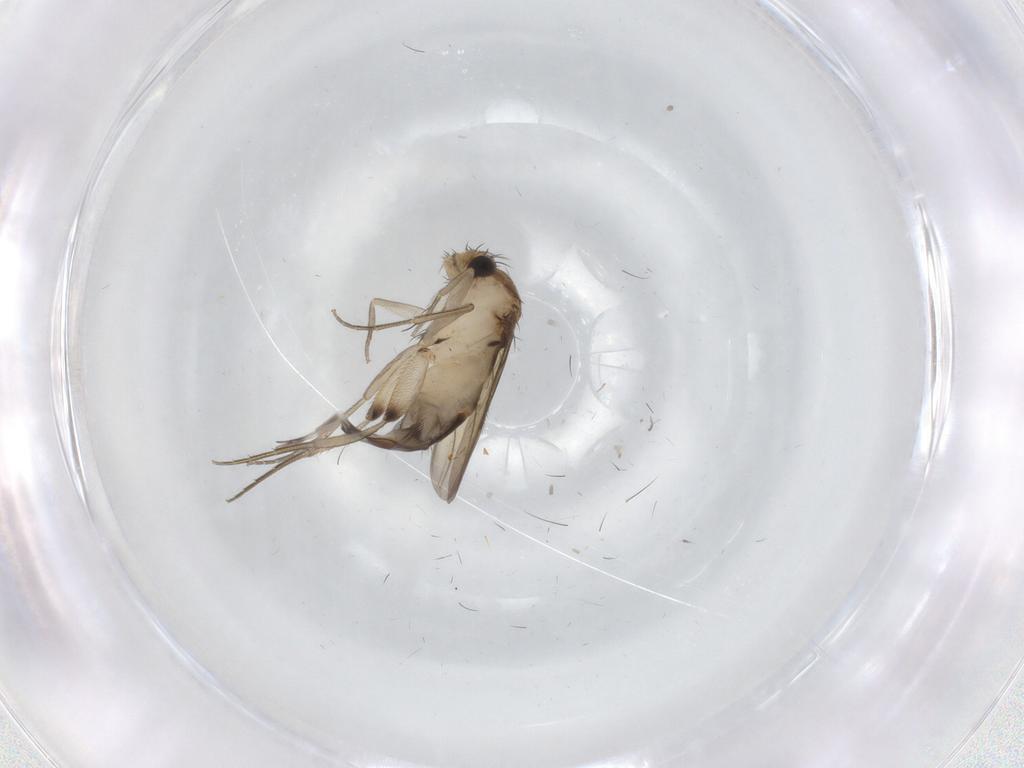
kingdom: Animalia
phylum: Arthropoda
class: Insecta
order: Diptera
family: Phoridae
